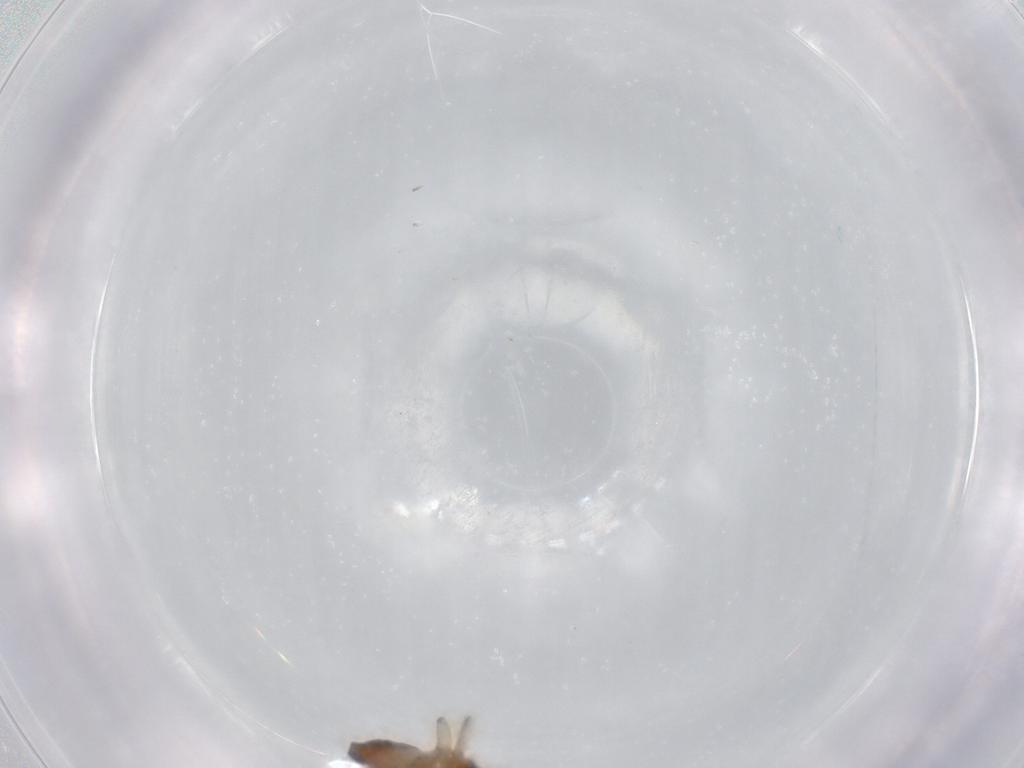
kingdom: Animalia
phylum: Arthropoda
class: Insecta
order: Diptera
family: Ceratopogonidae
